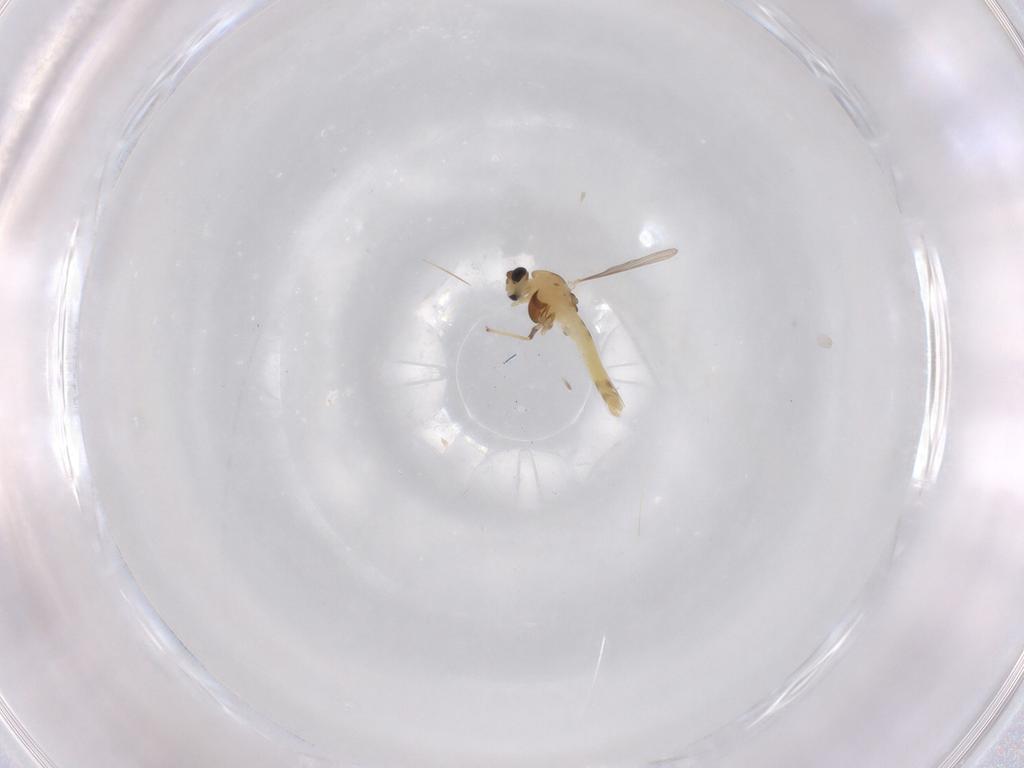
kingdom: Animalia
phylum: Arthropoda
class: Insecta
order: Diptera
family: Chironomidae
